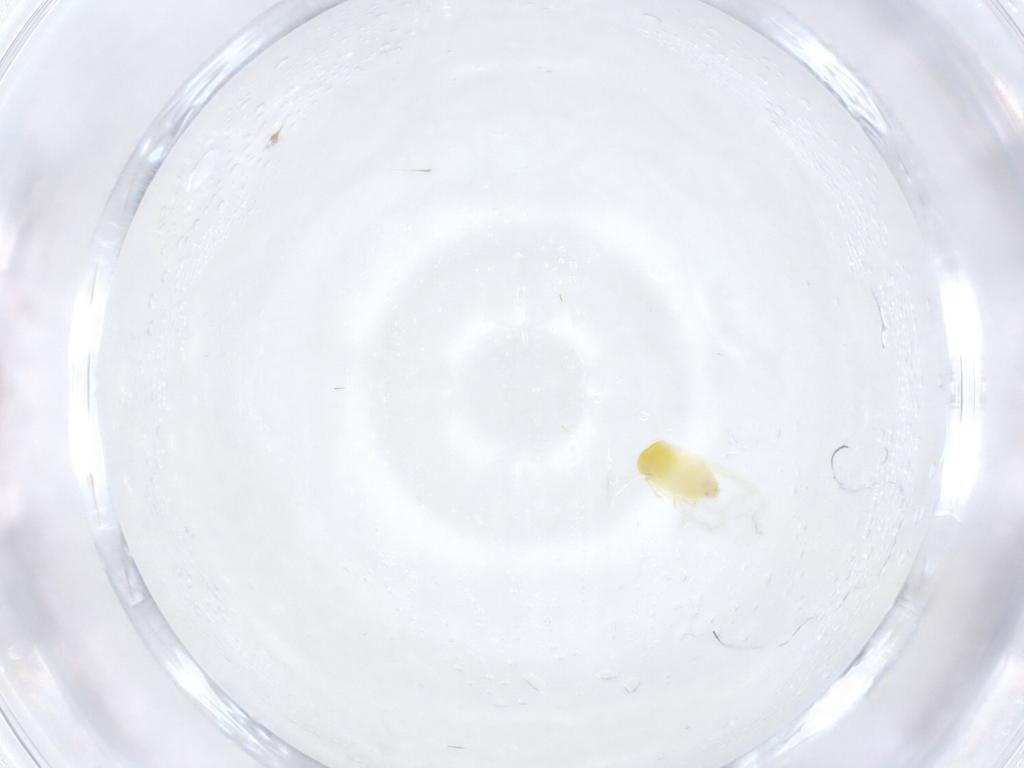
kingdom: Animalia
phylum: Arthropoda
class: Insecta
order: Hemiptera
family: Aleyrodidae
